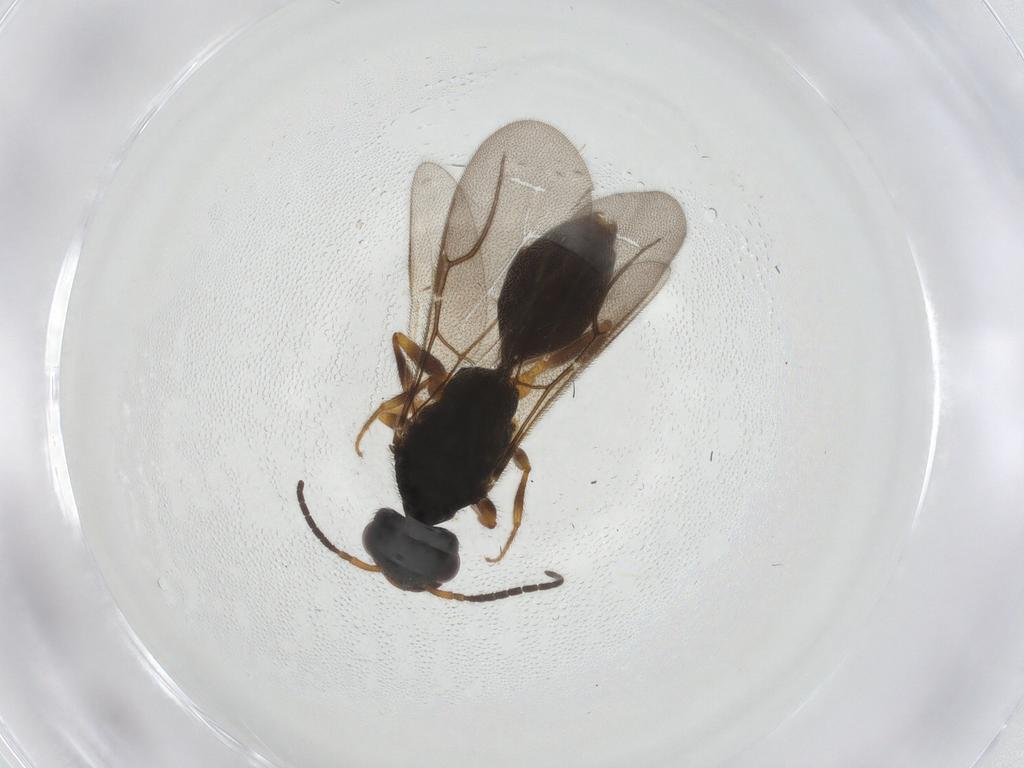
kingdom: Animalia
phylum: Arthropoda
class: Insecta
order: Hymenoptera
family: Bethylidae
